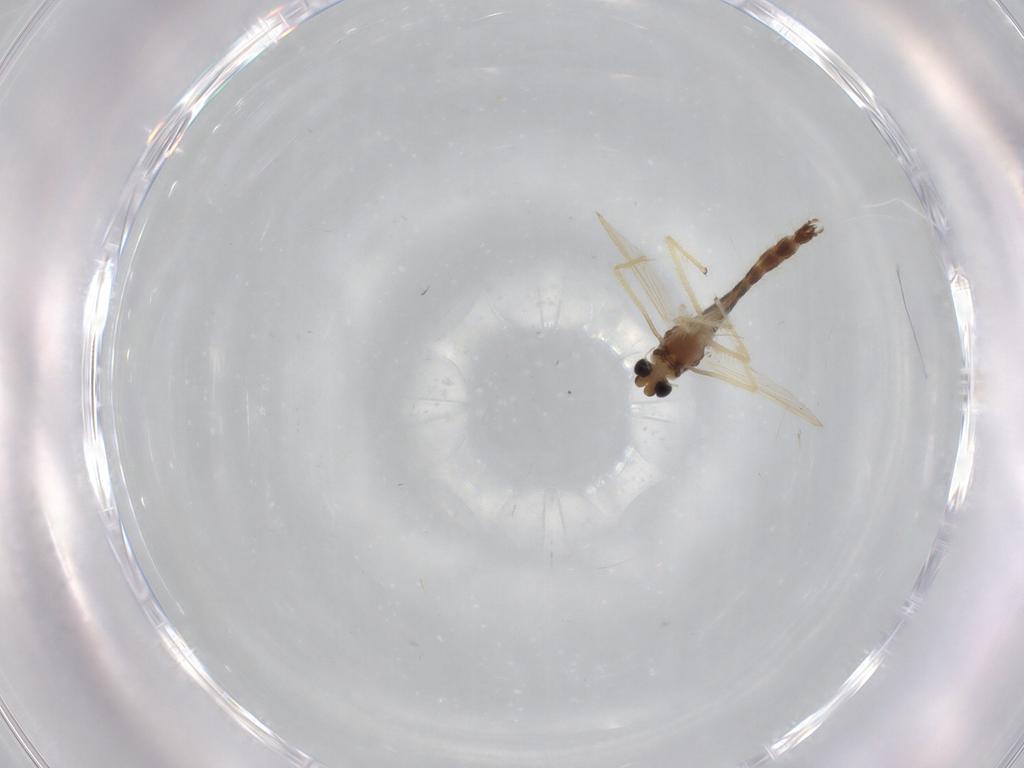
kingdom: Animalia
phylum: Arthropoda
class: Insecta
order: Diptera
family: Chironomidae
